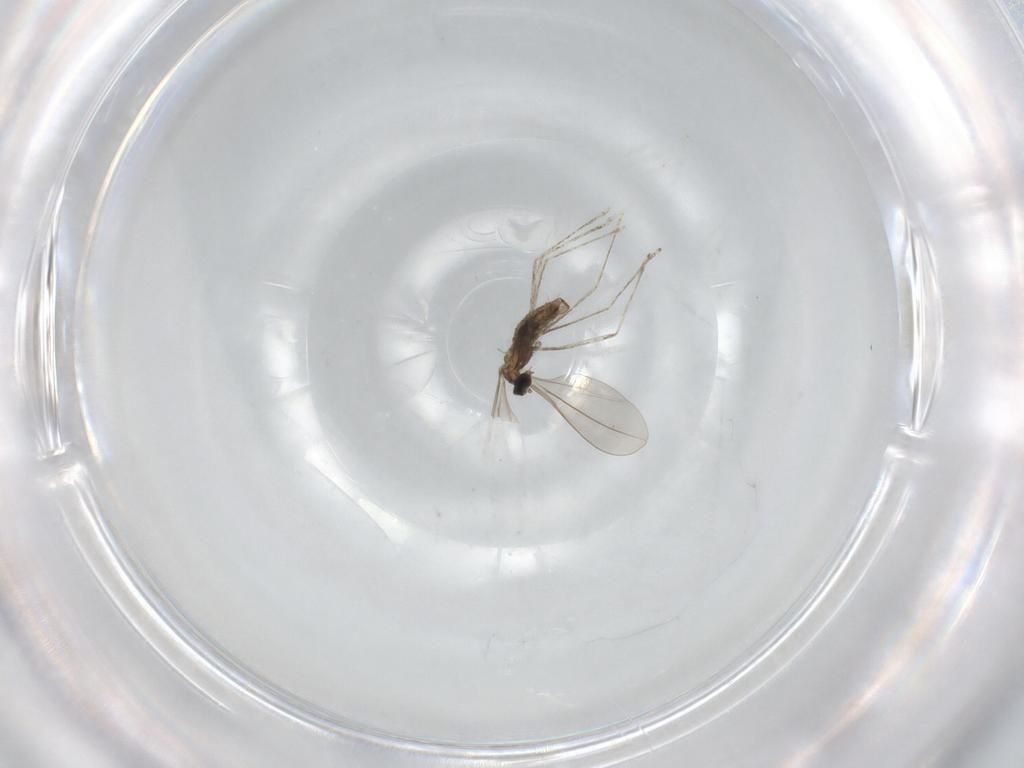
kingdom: Animalia
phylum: Arthropoda
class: Insecta
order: Diptera
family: Cecidomyiidae
